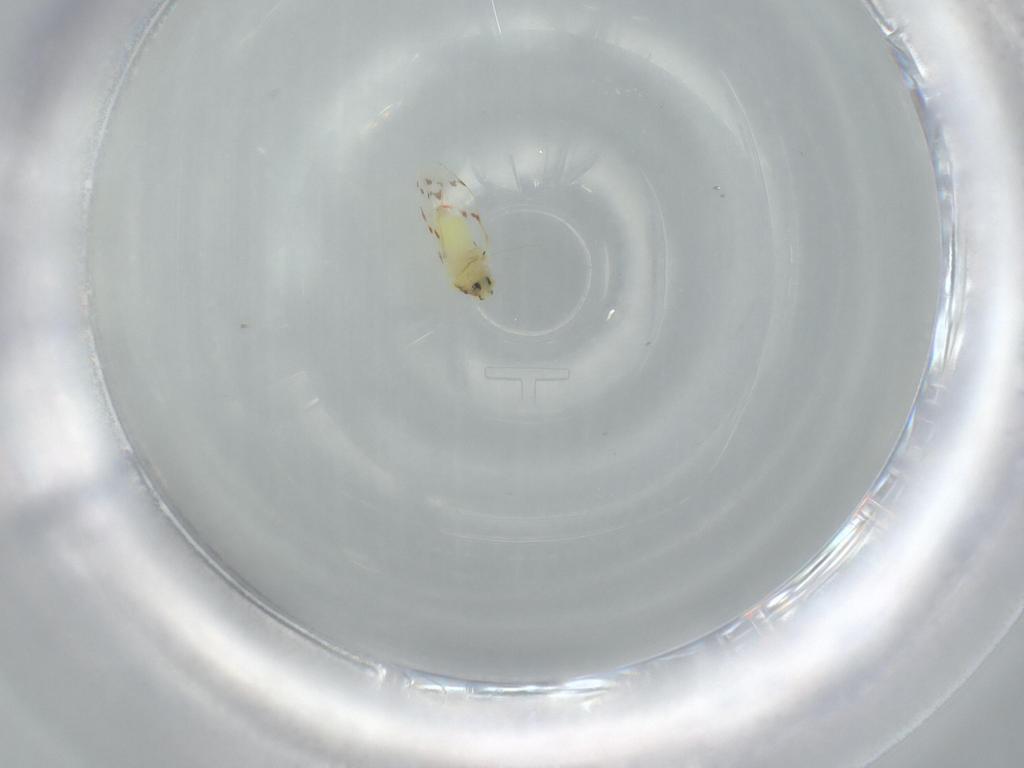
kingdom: Animalia
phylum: Arthropoda
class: Insecta
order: Hemiptera
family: Aleyrodidae
